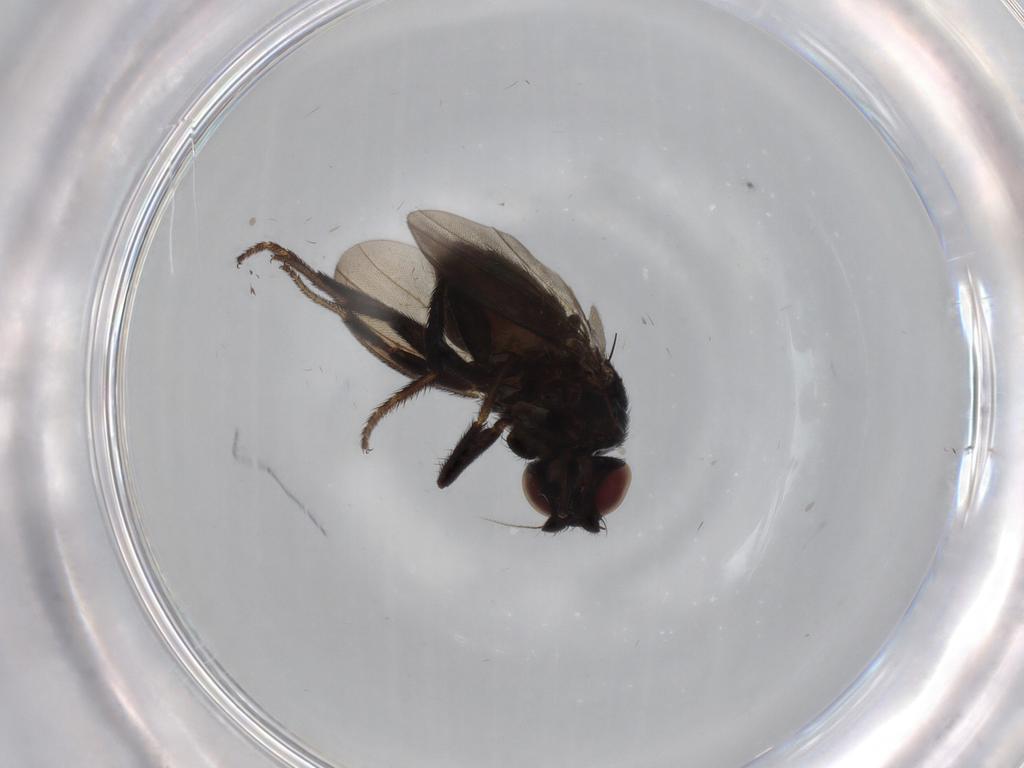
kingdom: Animalia
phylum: Arthropoda
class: Insecta
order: Diptera
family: Milichiidae
